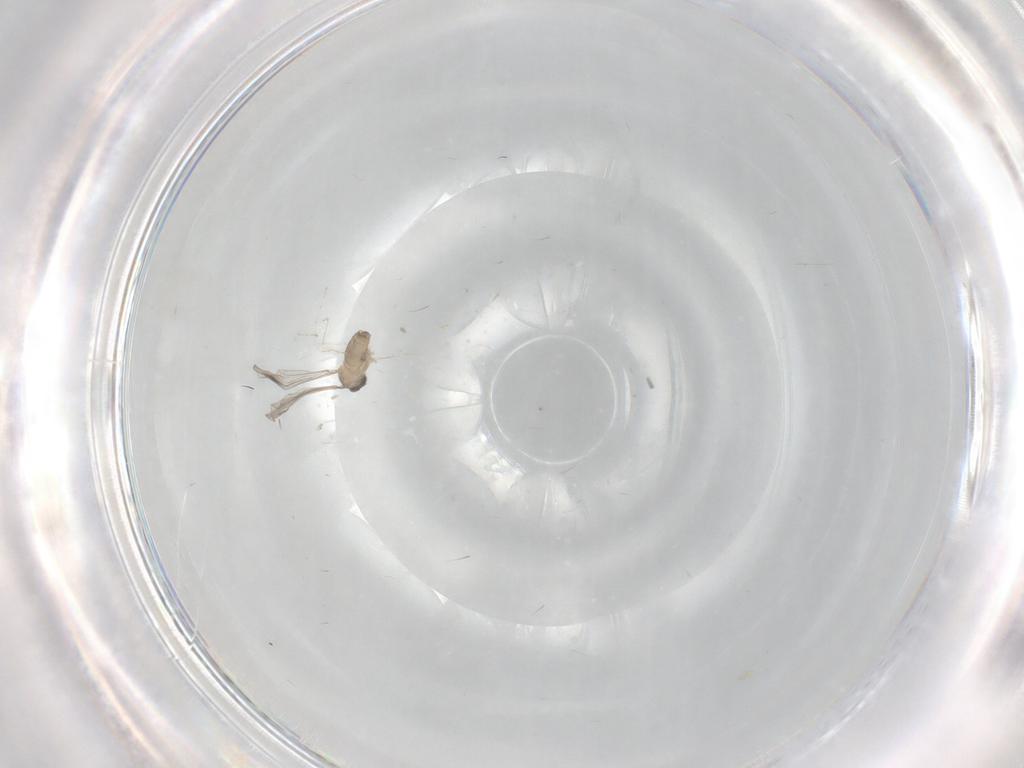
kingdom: Animalia
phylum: Arthropoda
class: Insecta
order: Diptera
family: Cecidomyiidae
